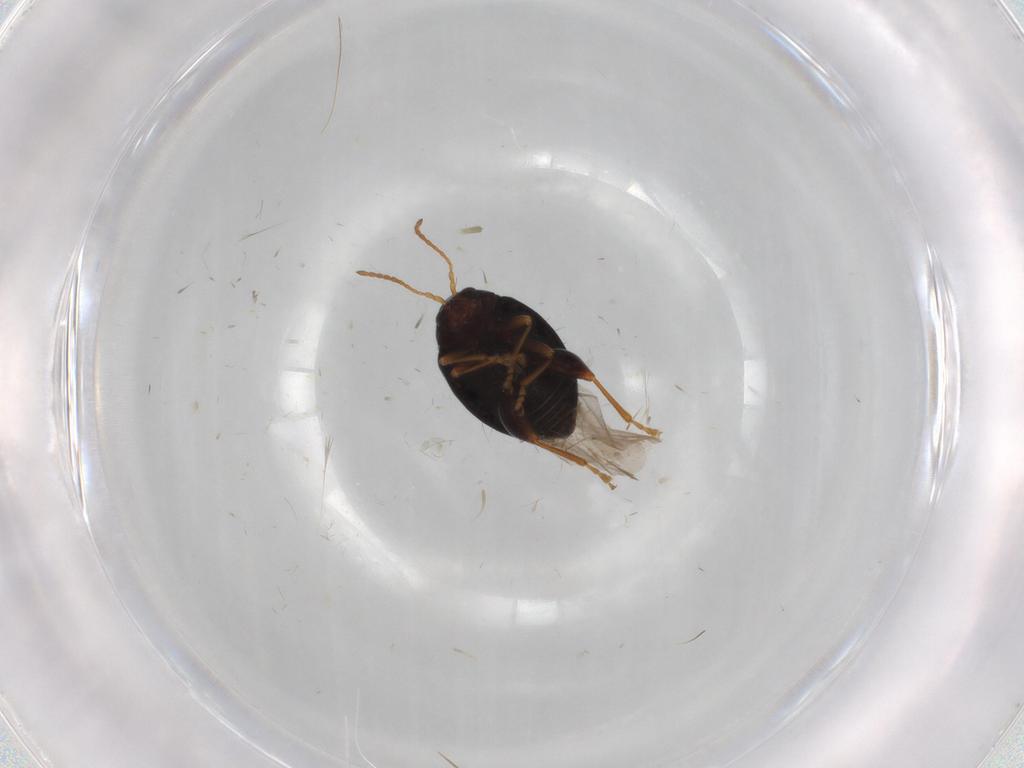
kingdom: Animalia
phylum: Arthropoda
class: Insecta
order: Coleoptera
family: Chrysomelidae
